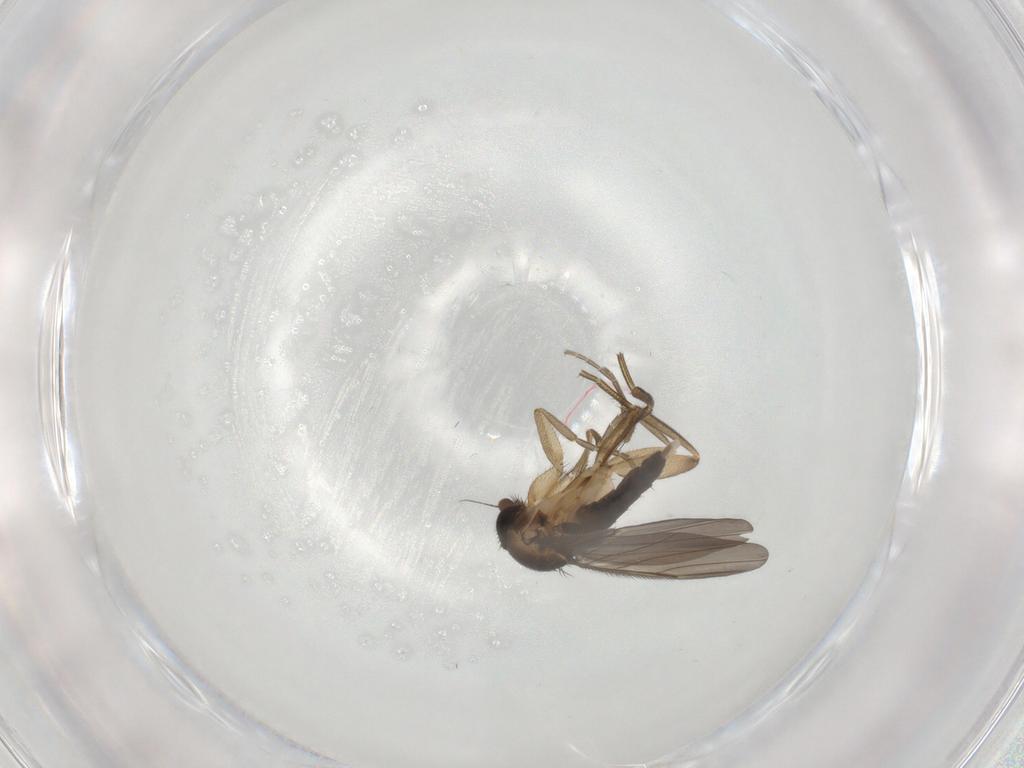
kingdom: Animalia
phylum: Arthropoda
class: Insecta
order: Diptera
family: Phoridae
